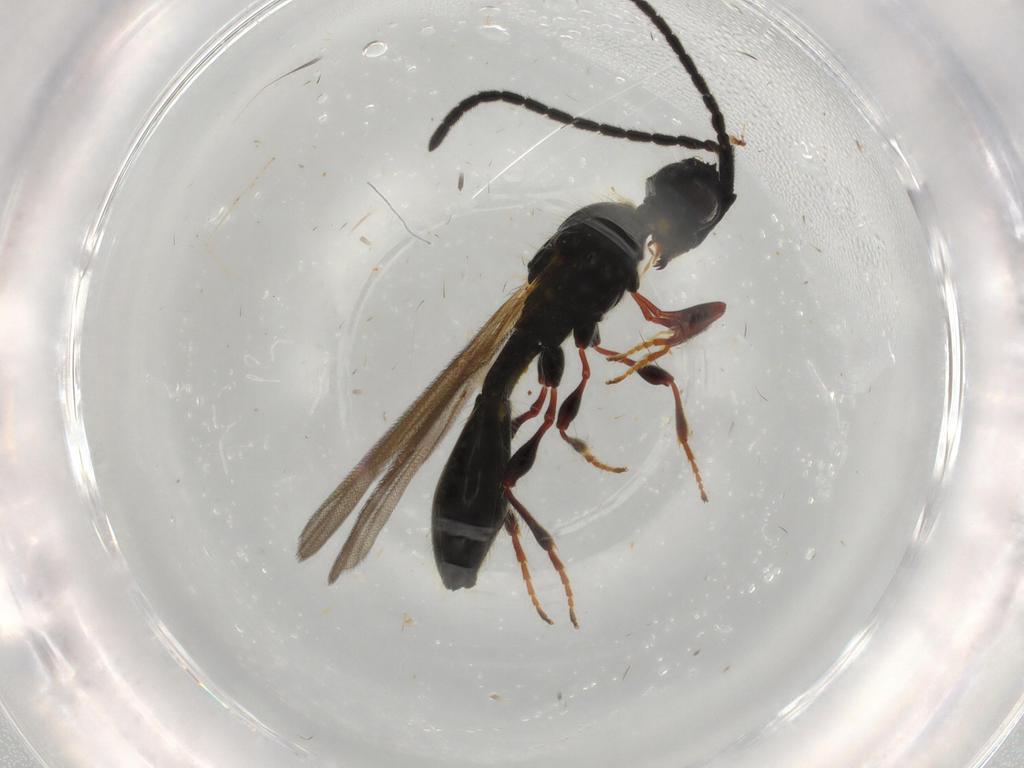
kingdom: Animalia
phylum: Arthropoda
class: Insecta
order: Hymenoptera
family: Diapriidae
